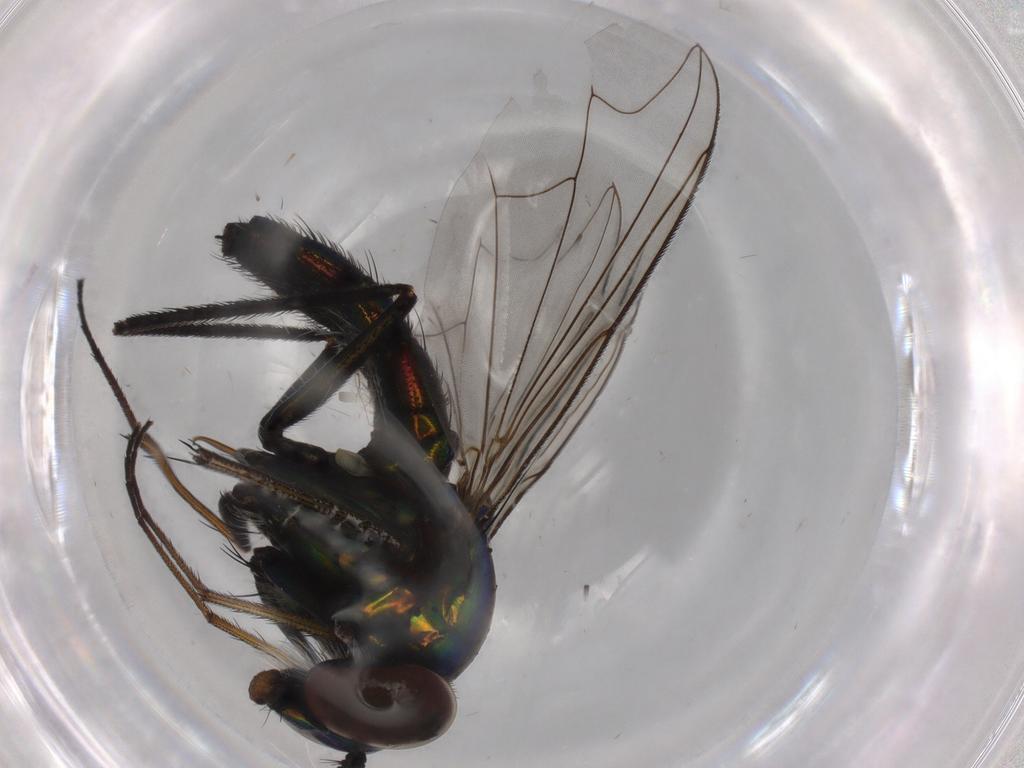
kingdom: Animalia
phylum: Arthropoda
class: Insecta
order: Diptera
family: Dolichopodidae
